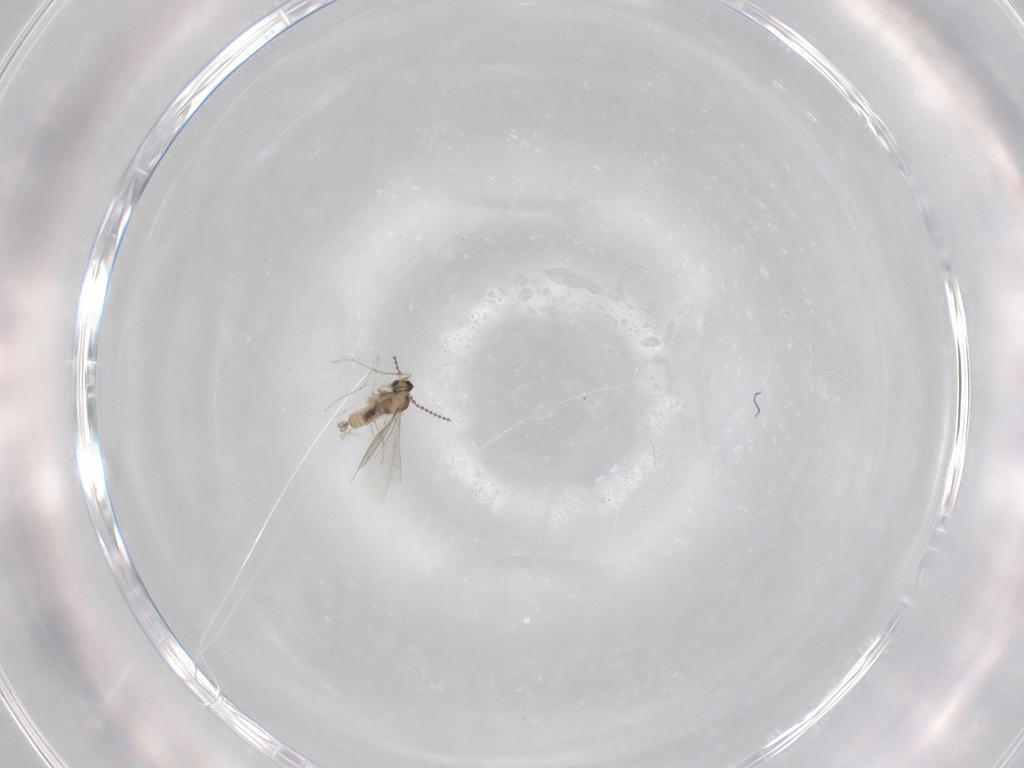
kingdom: Animalia
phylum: Arthropoda
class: Insecta
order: Diptera
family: Cecidomyiidae
